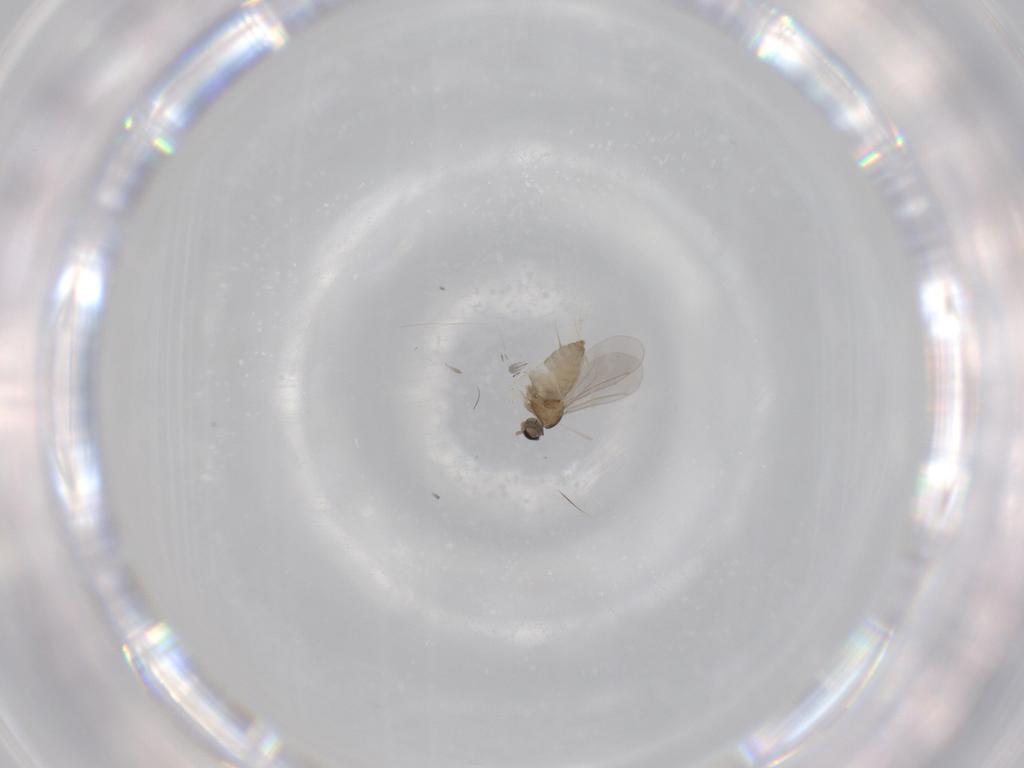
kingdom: Animalia
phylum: Arthropoda
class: Insecta
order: Diptera
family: Cecidomyiidae
